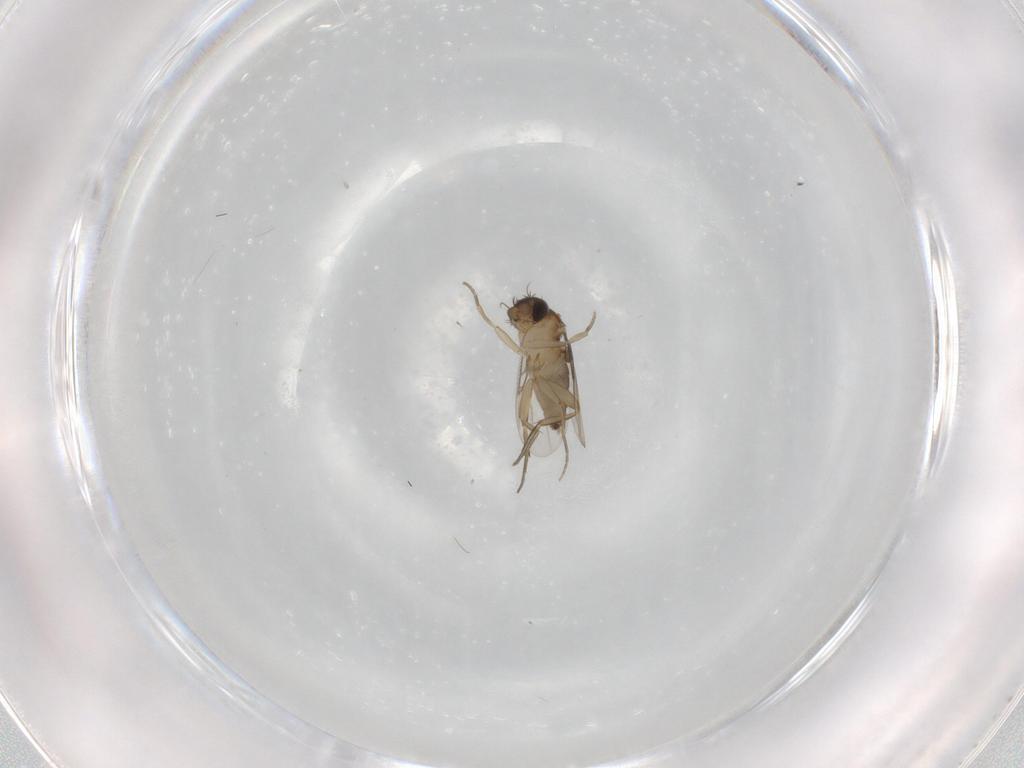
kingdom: Animalia
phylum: Arthropoda
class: Insecta
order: Diptera
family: Phoridae
